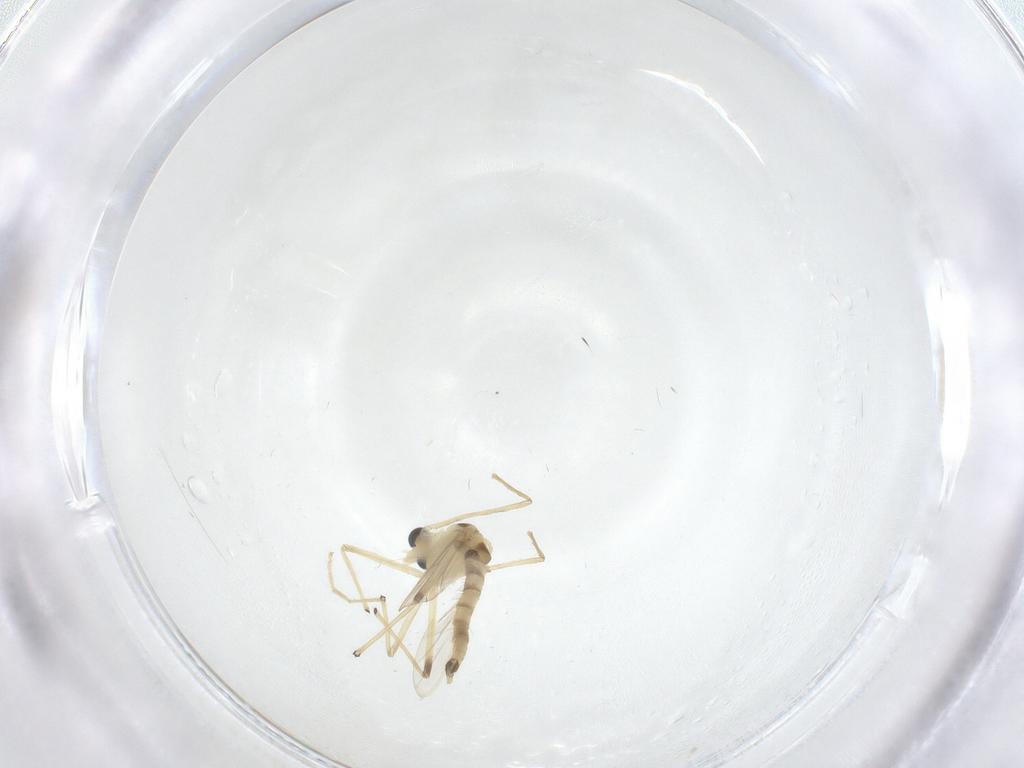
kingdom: Animalia
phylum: Arthropoda
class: Insecta
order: Diptera
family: Chironomidae
